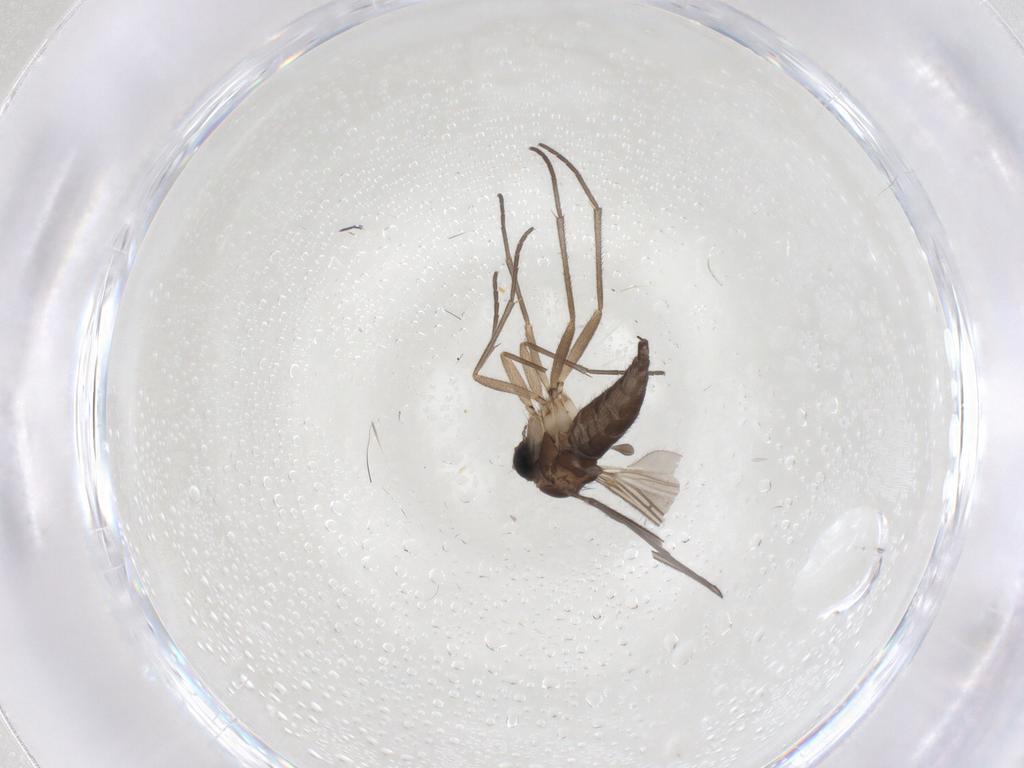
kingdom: Animalia
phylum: Arthropoda
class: Insecta
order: Diptera
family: Sciaridae
